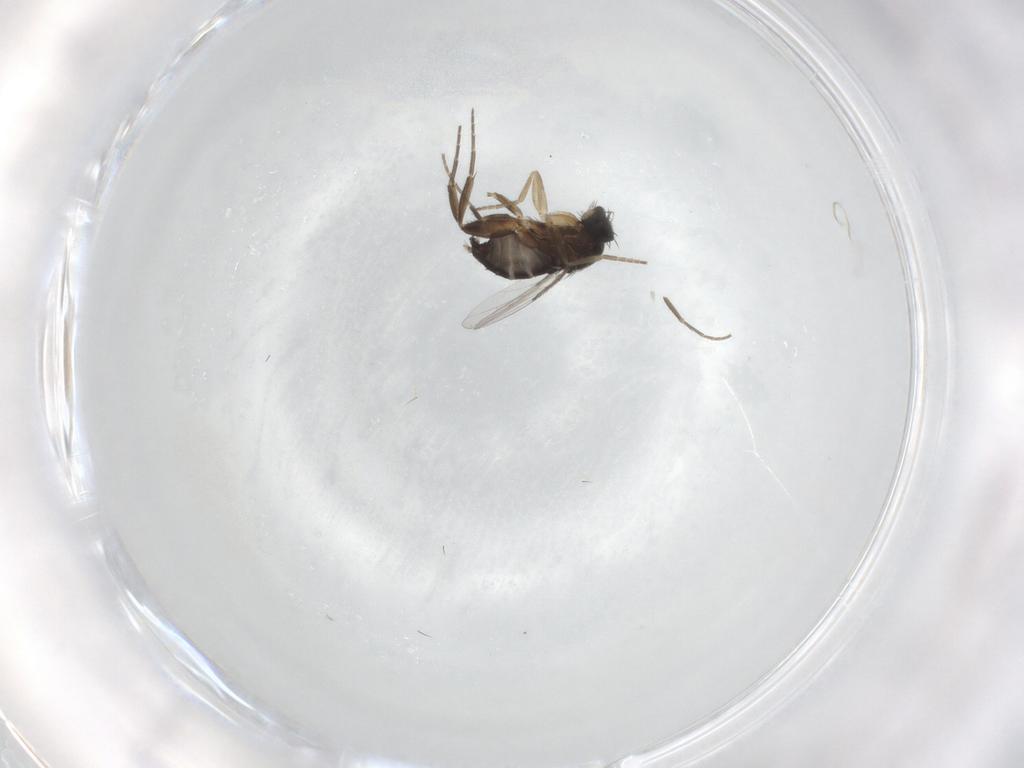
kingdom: Animalia
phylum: Arthropoda
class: Insecta
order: Diptera
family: Phoridae
